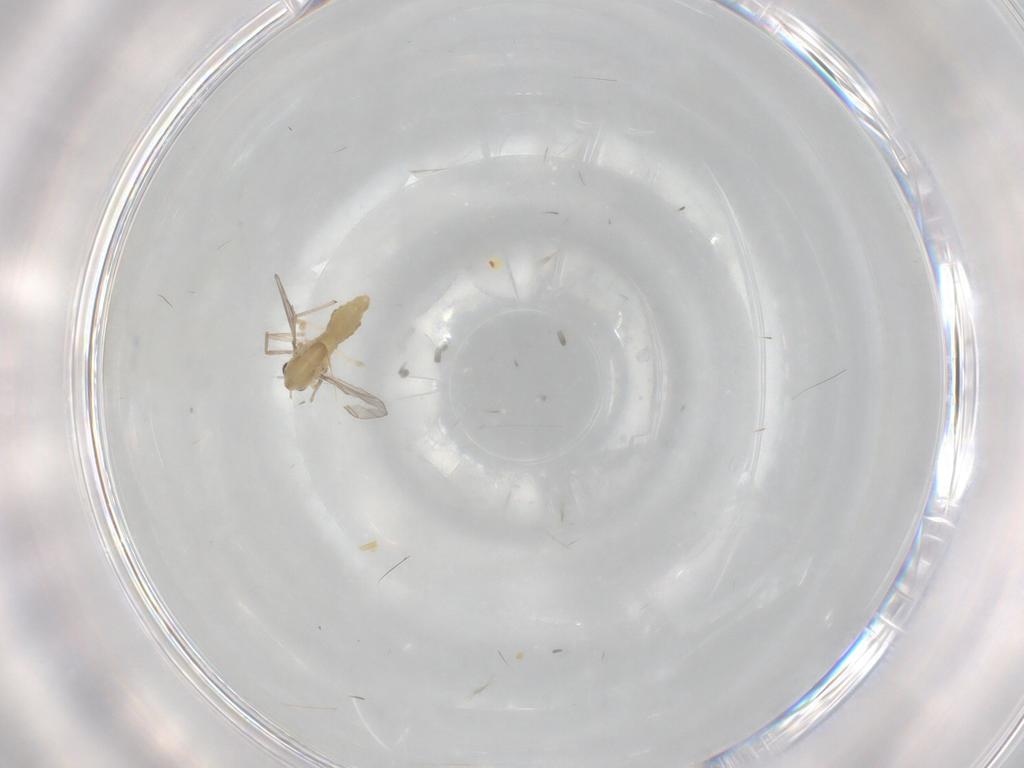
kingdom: Animalia
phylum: Arthropoda
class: Insecta
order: Diptera
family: Chironomidae
